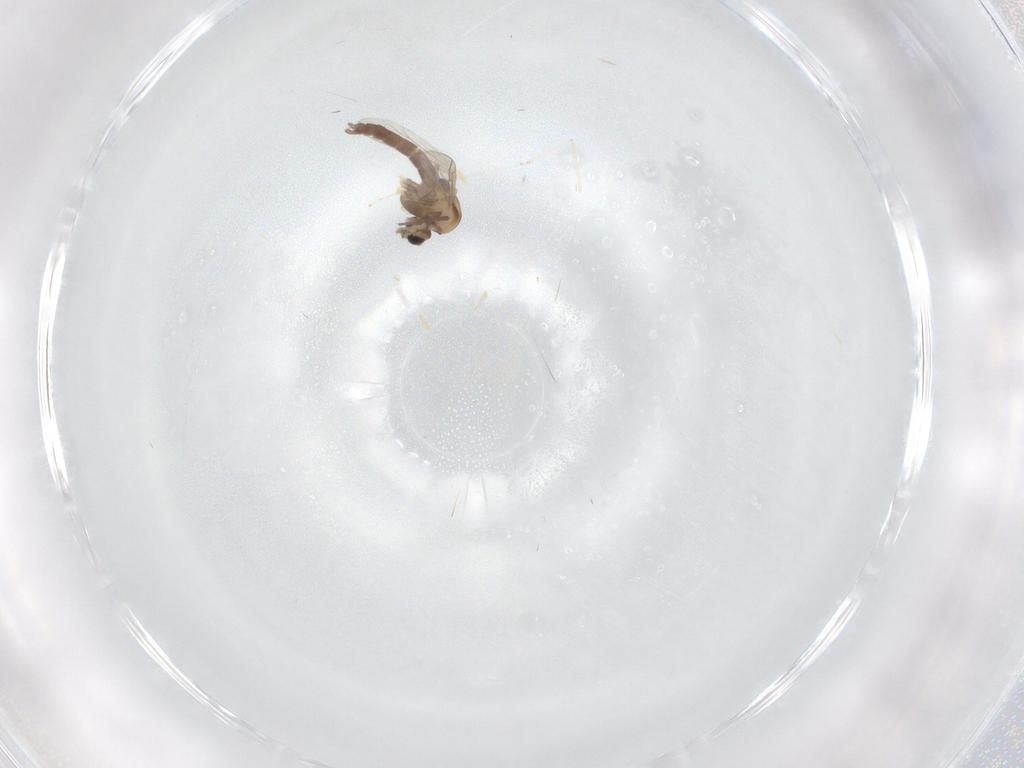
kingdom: Animalia
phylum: Arthropoda
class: Insecta
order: Diptera
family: Chironomidae
